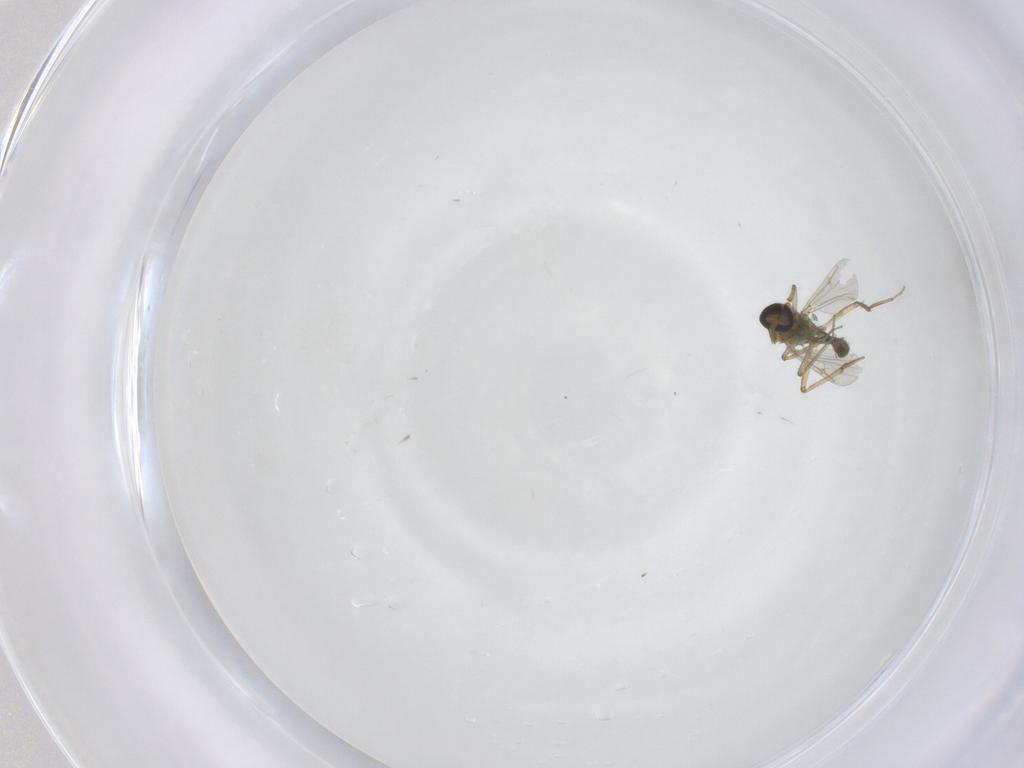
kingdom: Animalia
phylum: Arthropoda
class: Insecta
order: Diptera
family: Ceratopogonidae
